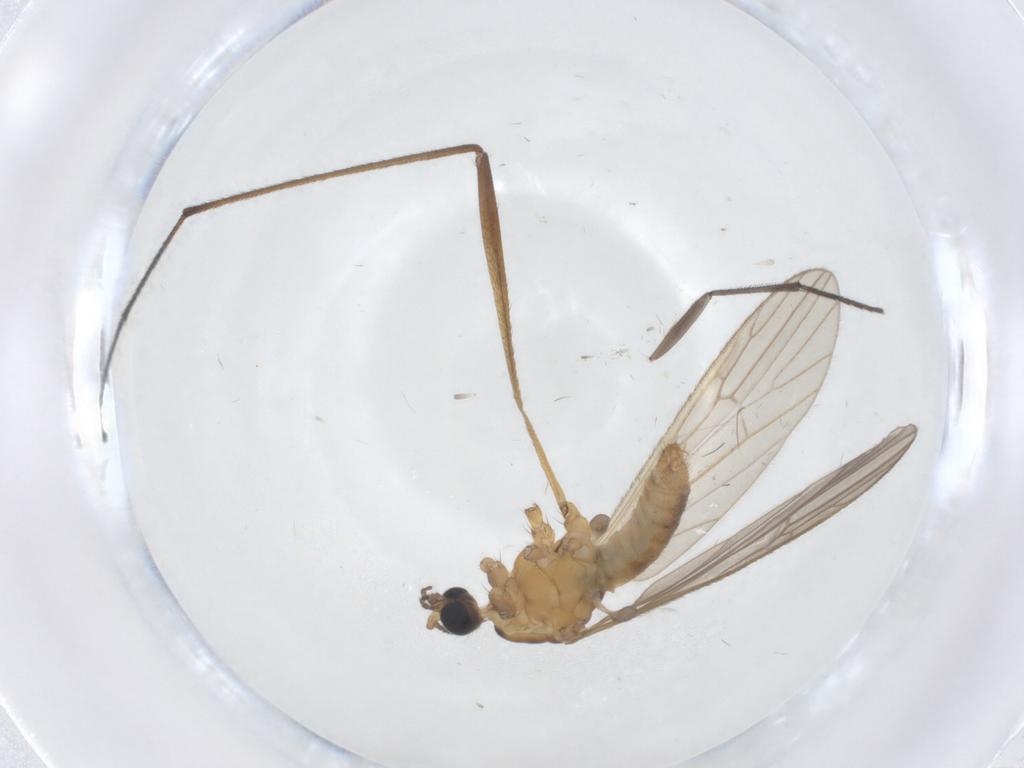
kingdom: Animalia
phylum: Arthropoda
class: Insecta
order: Diptera
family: Limoniidae
